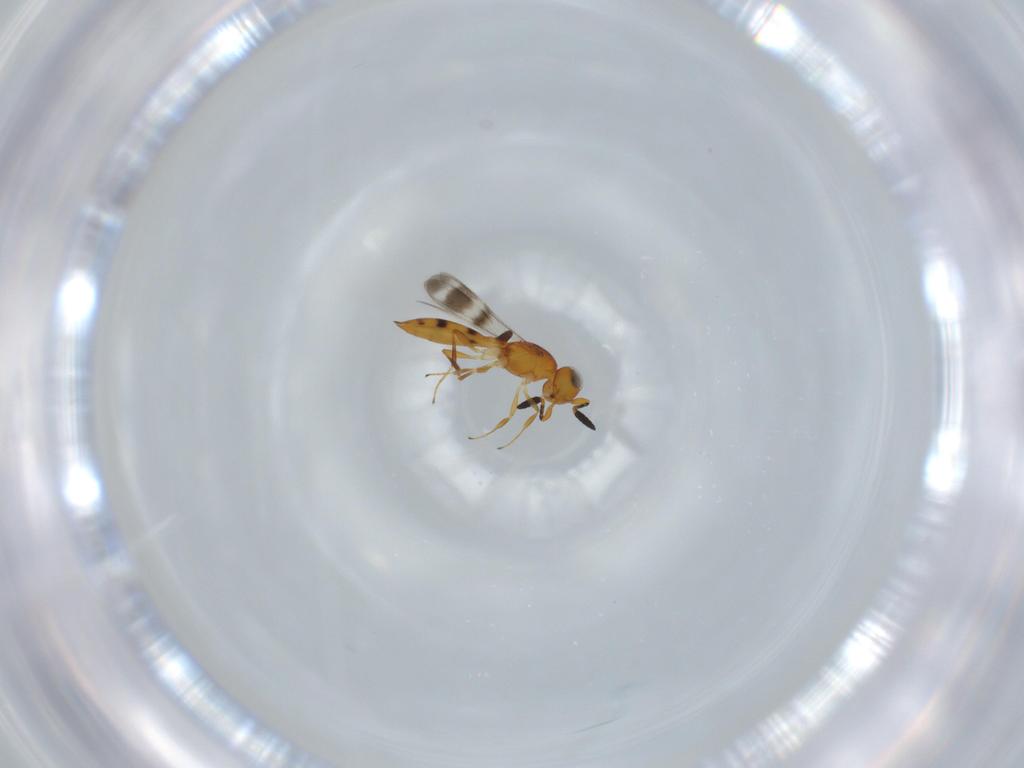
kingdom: Animalia
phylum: Arthropoda
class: Insecta
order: Hymenoptera
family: Scelionidae
